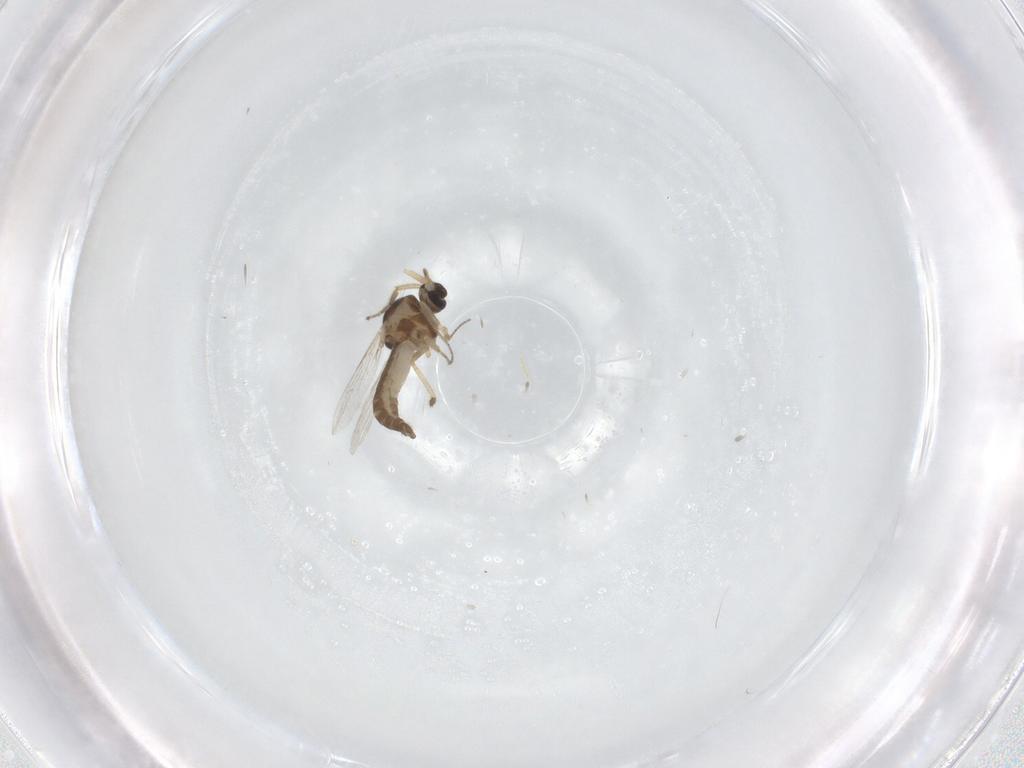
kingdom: Animalia
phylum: Arthropoda
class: Insecta
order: Diptera
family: Ceratopogonidae
